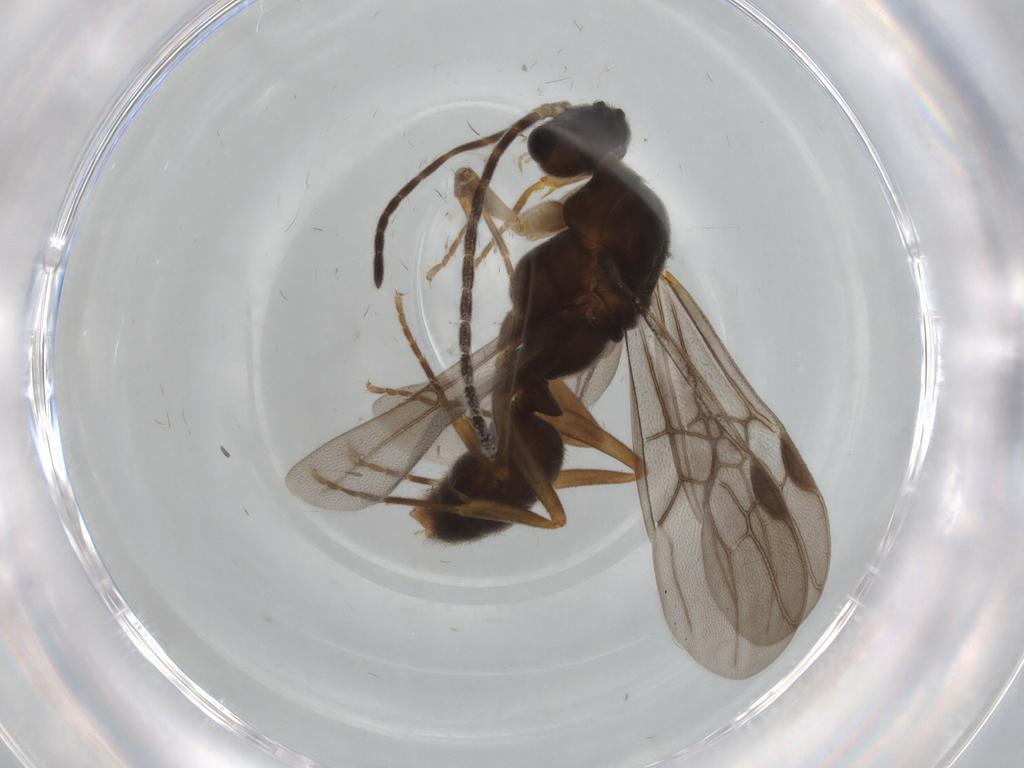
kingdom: Animalia
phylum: Arthropoda
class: Insecta
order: Hymenoptera
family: Formicidae
